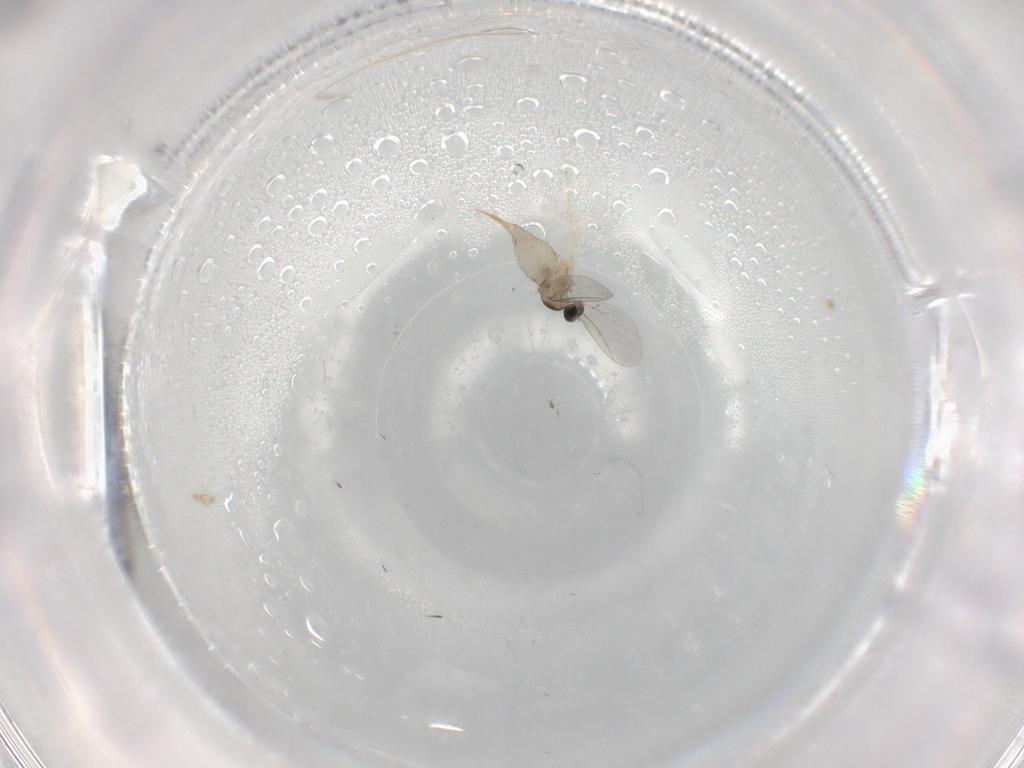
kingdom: Animalia
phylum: Arthropoda
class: Insecta
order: Diptera
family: Cecidomyiidae
